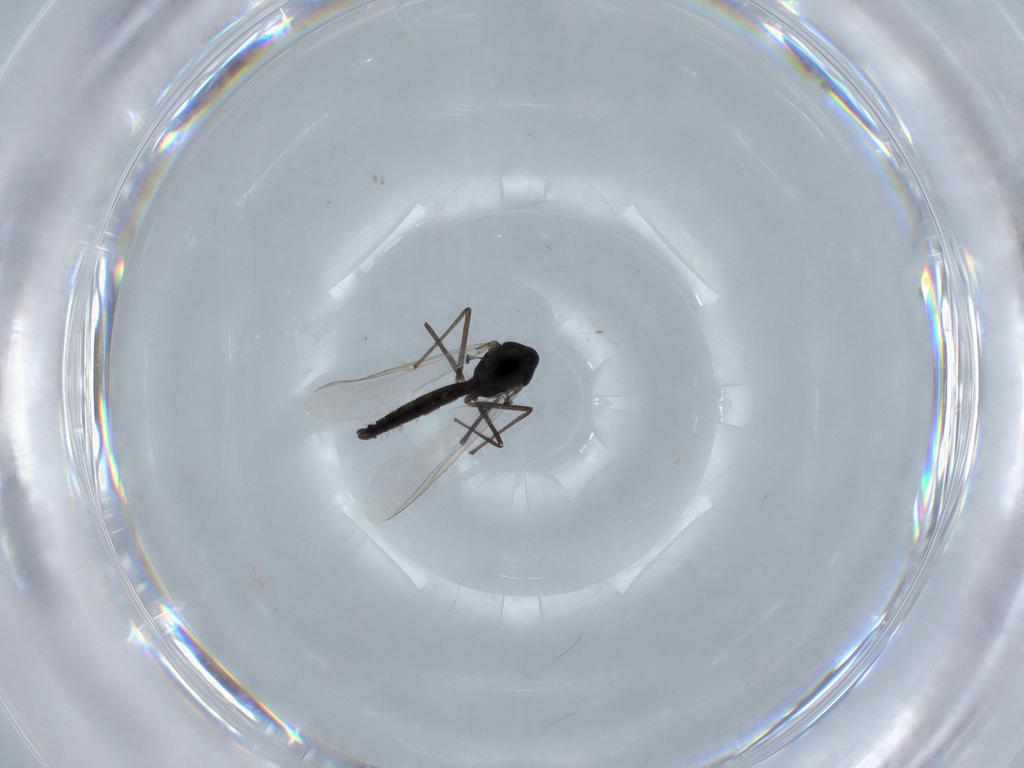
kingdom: Animalia
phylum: Arthropoda
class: Insecta
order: Diptera
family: Chironomidae
